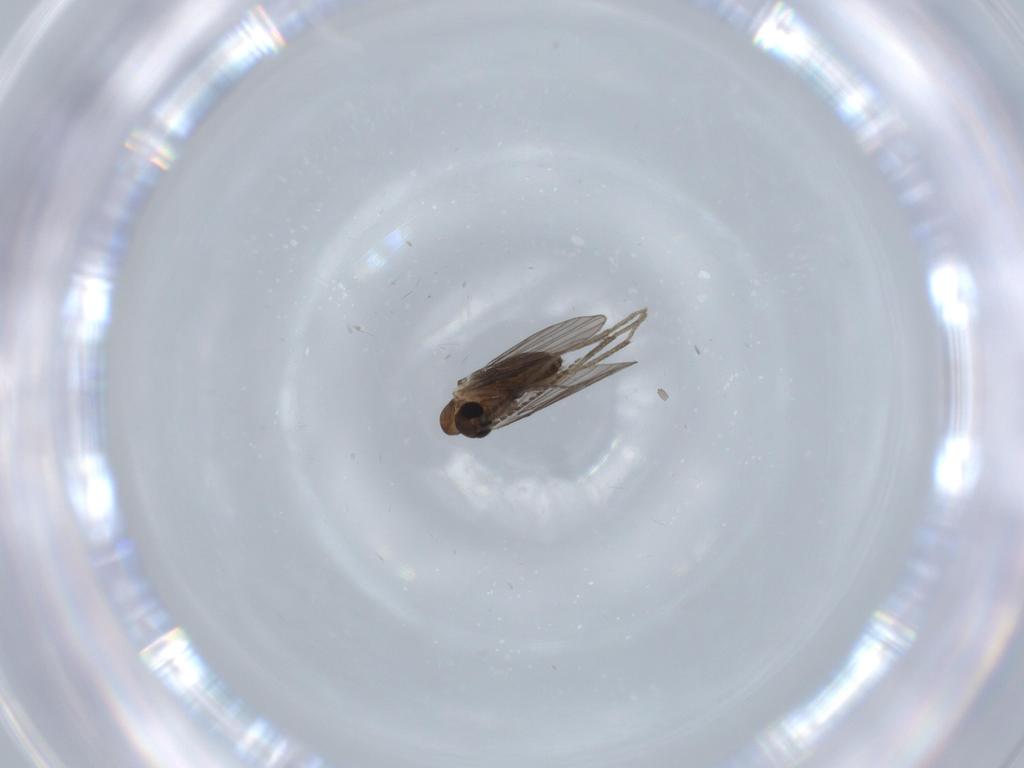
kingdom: Animalia
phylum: Arthropoda
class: Insecta
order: Diptera
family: Psychodidae
